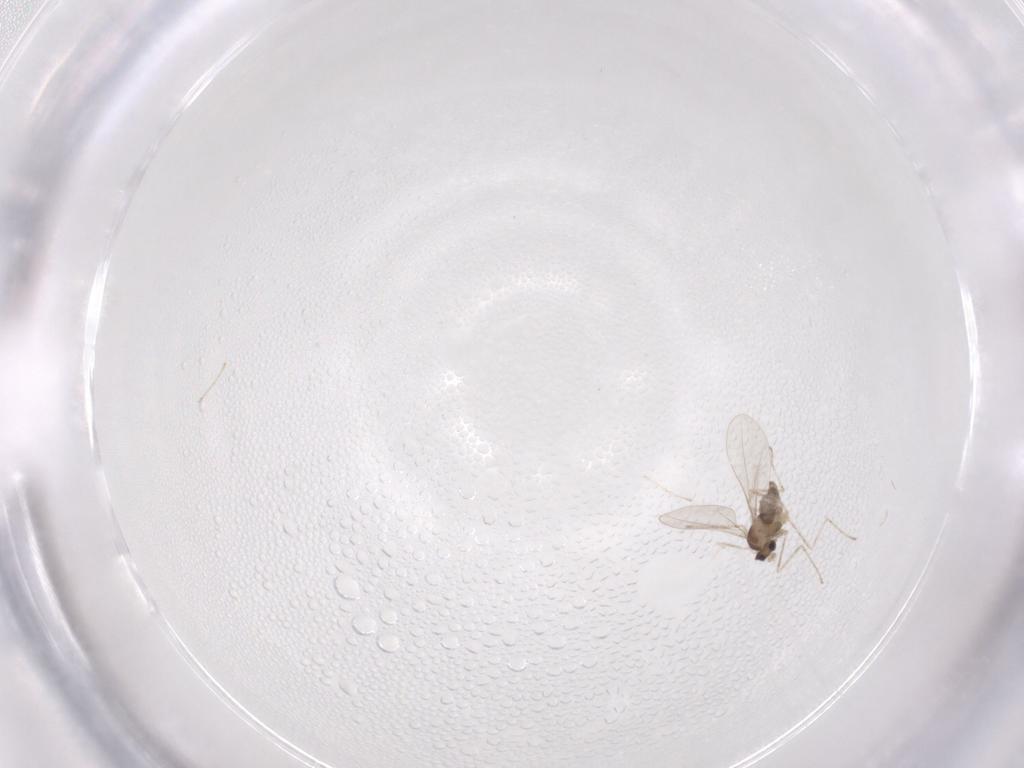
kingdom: Animalia
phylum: Arthropoda
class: Insecta
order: Diptera
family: Cecidomyiidae
